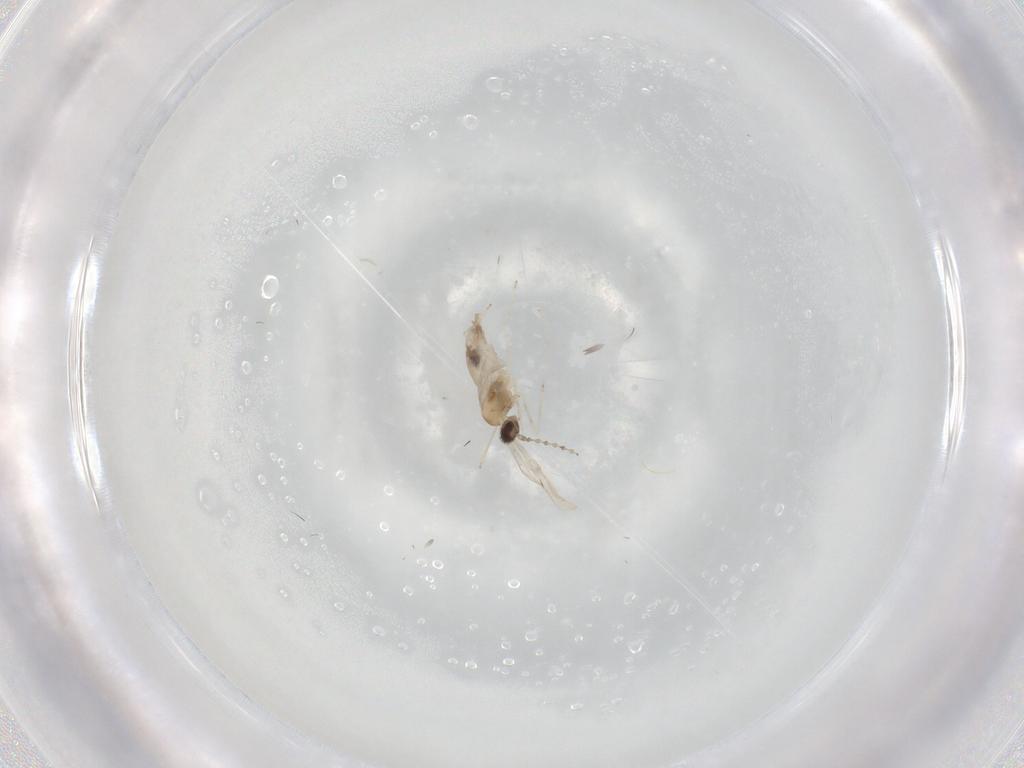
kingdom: Animalia
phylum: Arthropoda
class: Insecta
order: Diptera
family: Cecidomyiidae
